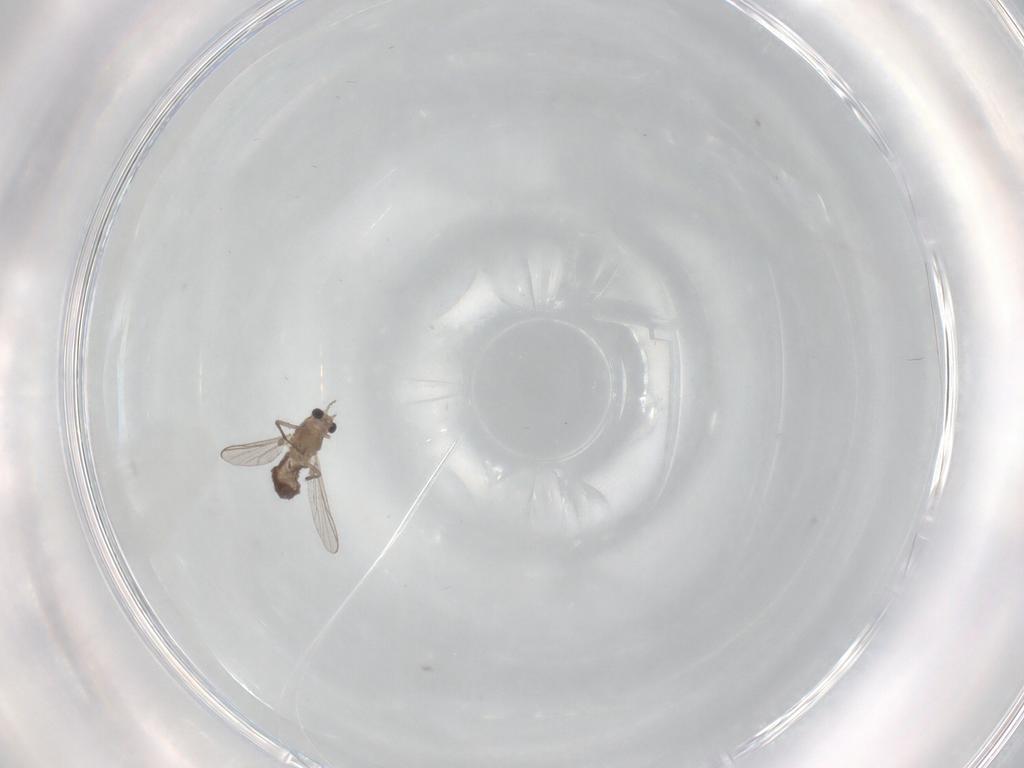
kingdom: Animalia
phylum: Arthropoda
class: Insecta
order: Diptera
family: Chironomidae
